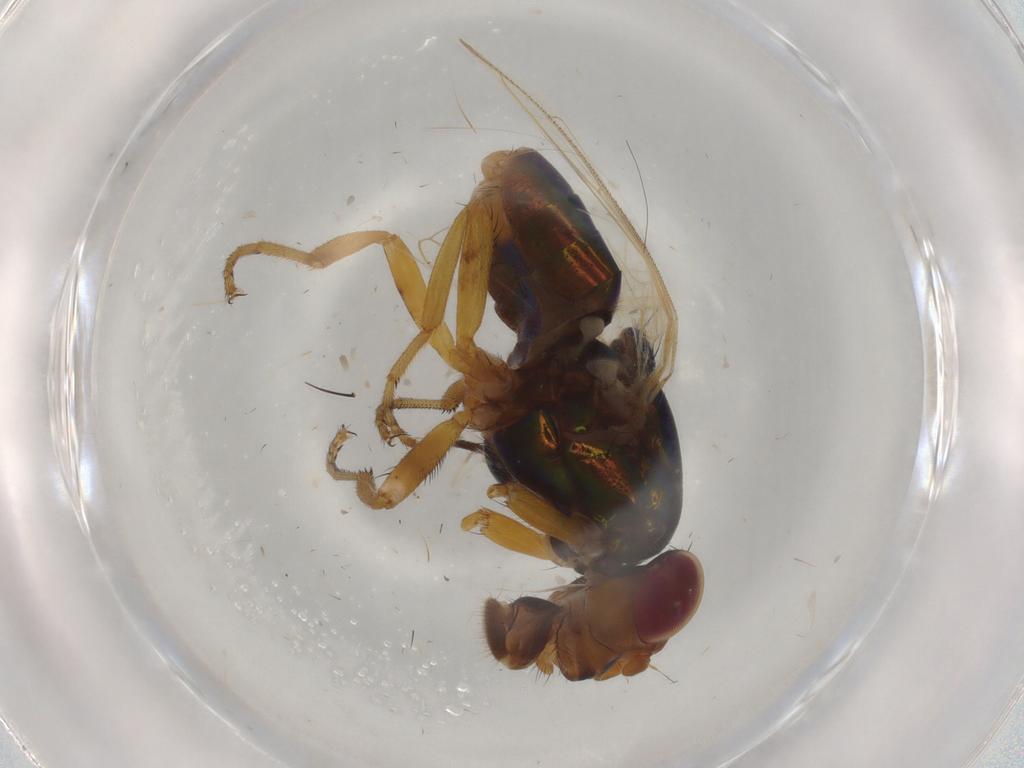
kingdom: Animalia
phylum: Arthropoda
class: Insecta
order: Diptera
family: Ulidiidae
